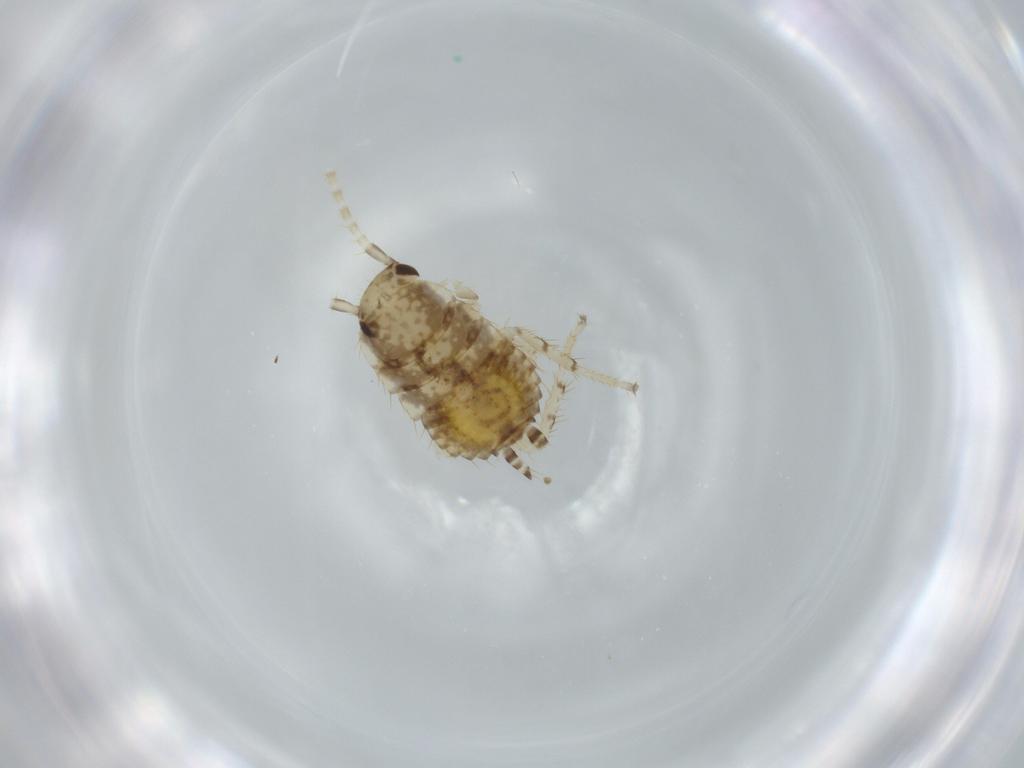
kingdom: Animalia
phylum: Arthropoda
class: Insecta
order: Blattodea
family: Ectobiidae
